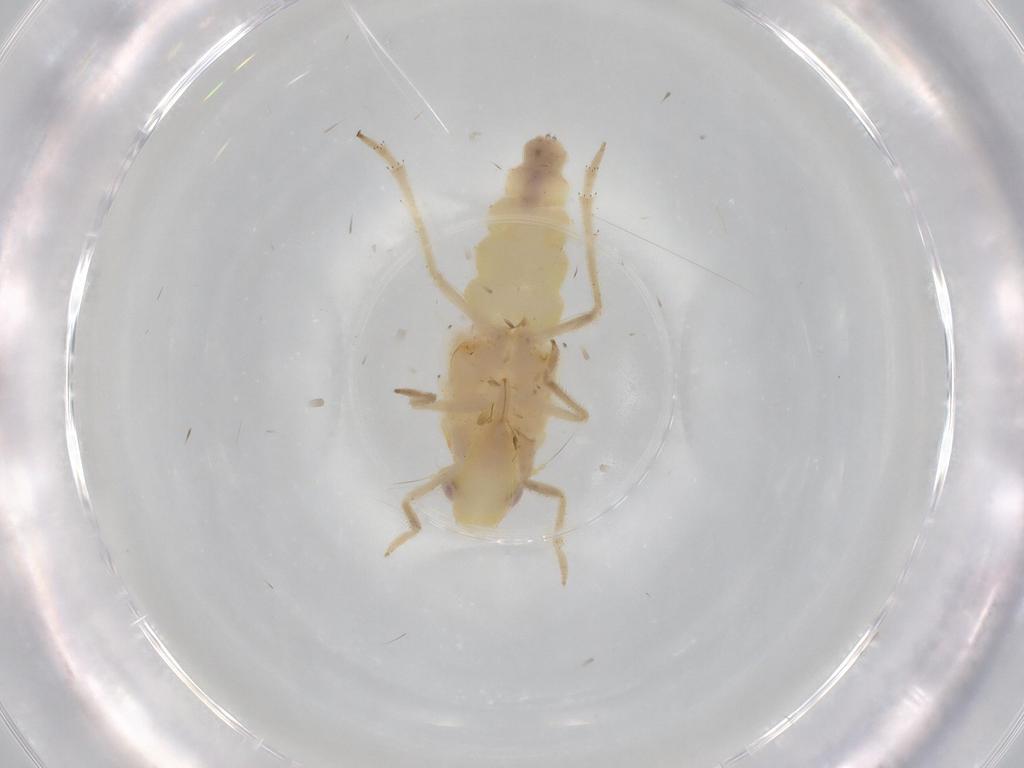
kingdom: Animalia
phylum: Arthropoda
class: Insecta
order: Hemiptera
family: Tropiduchidae
